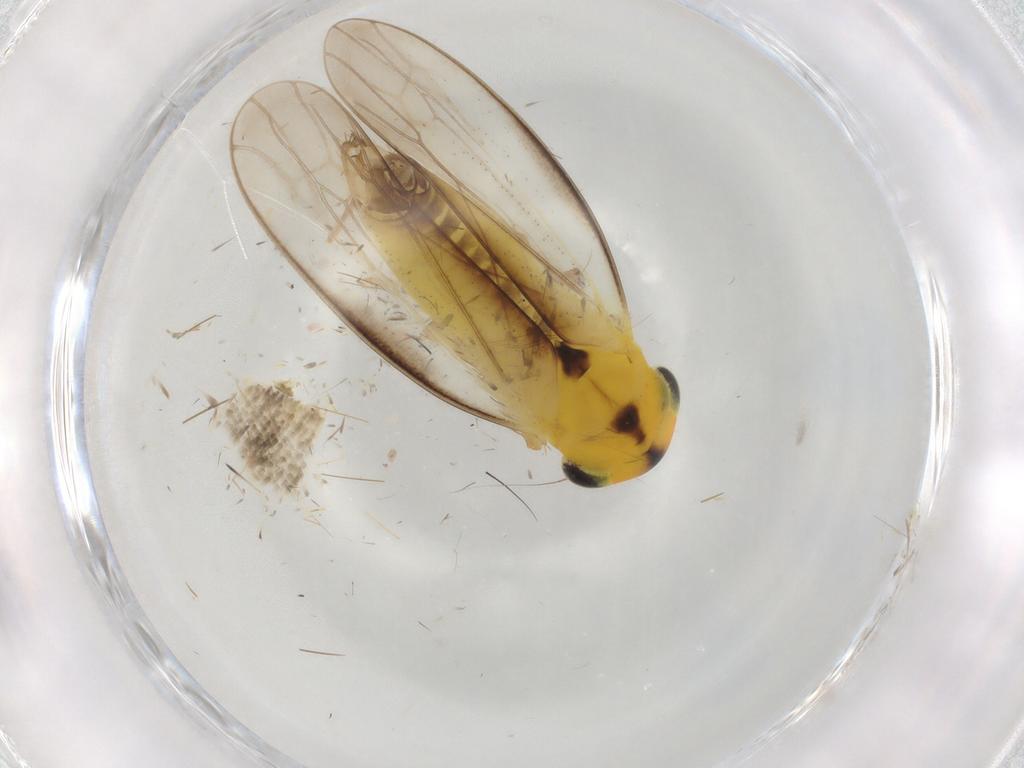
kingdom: Animalia
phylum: Arthropoda
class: Insecta
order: Hemiptera
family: Cicadellidae
